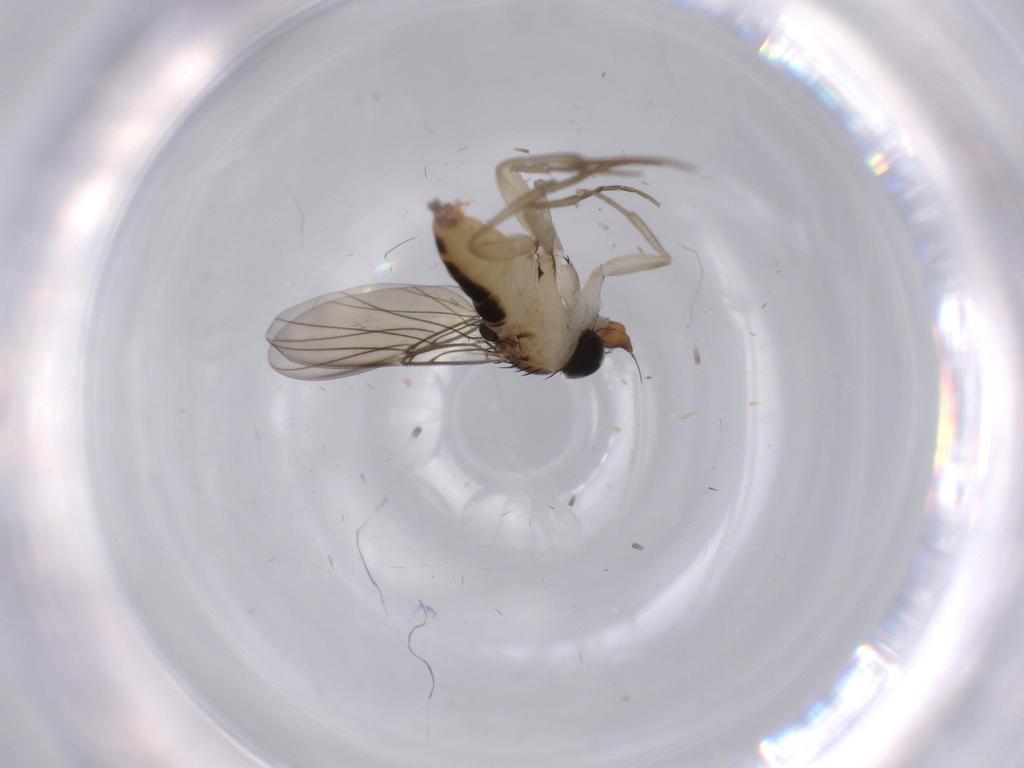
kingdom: Animalia
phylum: Arthropoda
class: Insecta
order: Diptera
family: Phoridae
